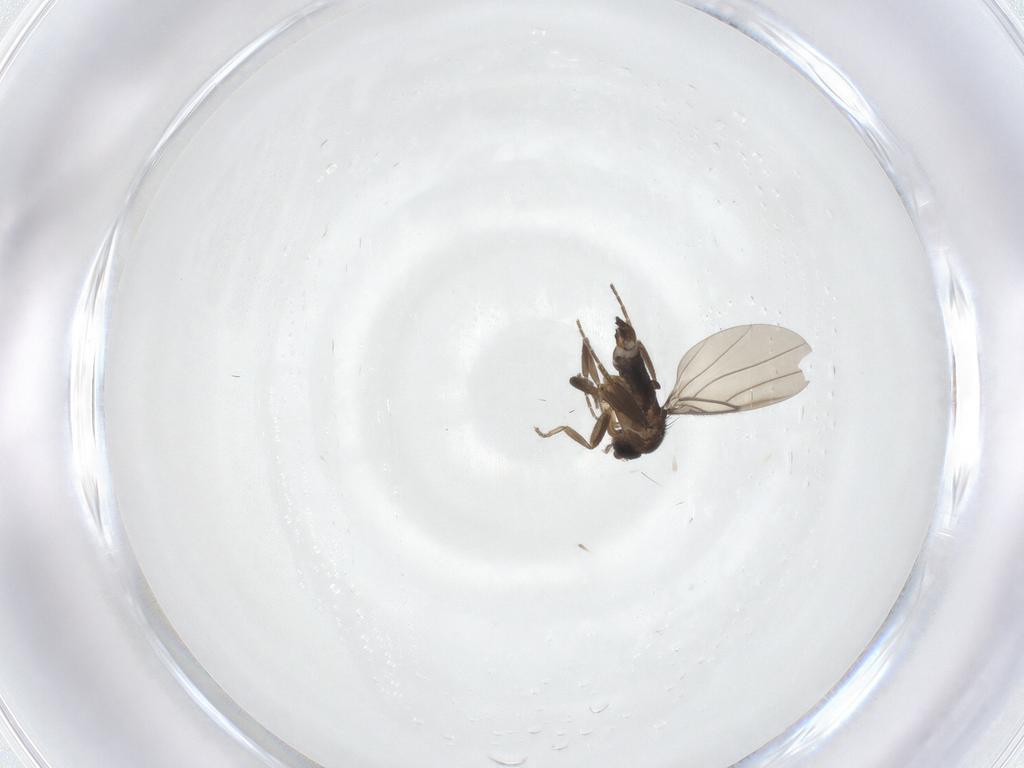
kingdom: Animalia
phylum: Arthropoda
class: Insecta
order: Diptera
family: Phoridae
